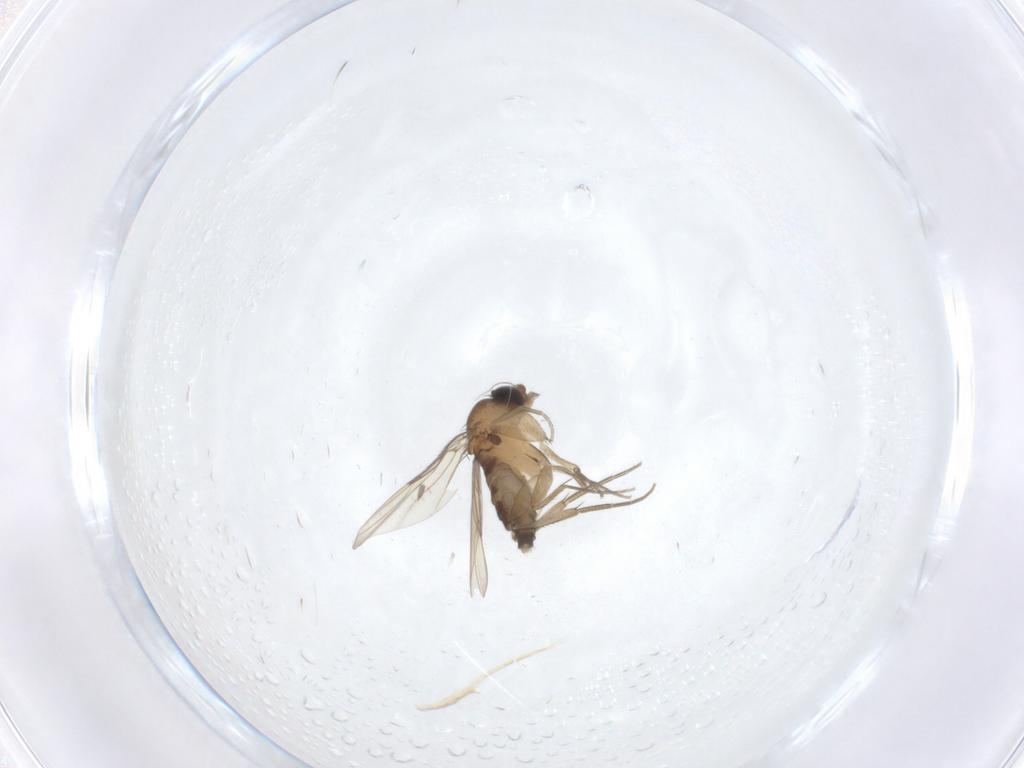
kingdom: Animalia
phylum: Arthropoda
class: Insecta
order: Diptera
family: Phoridae
